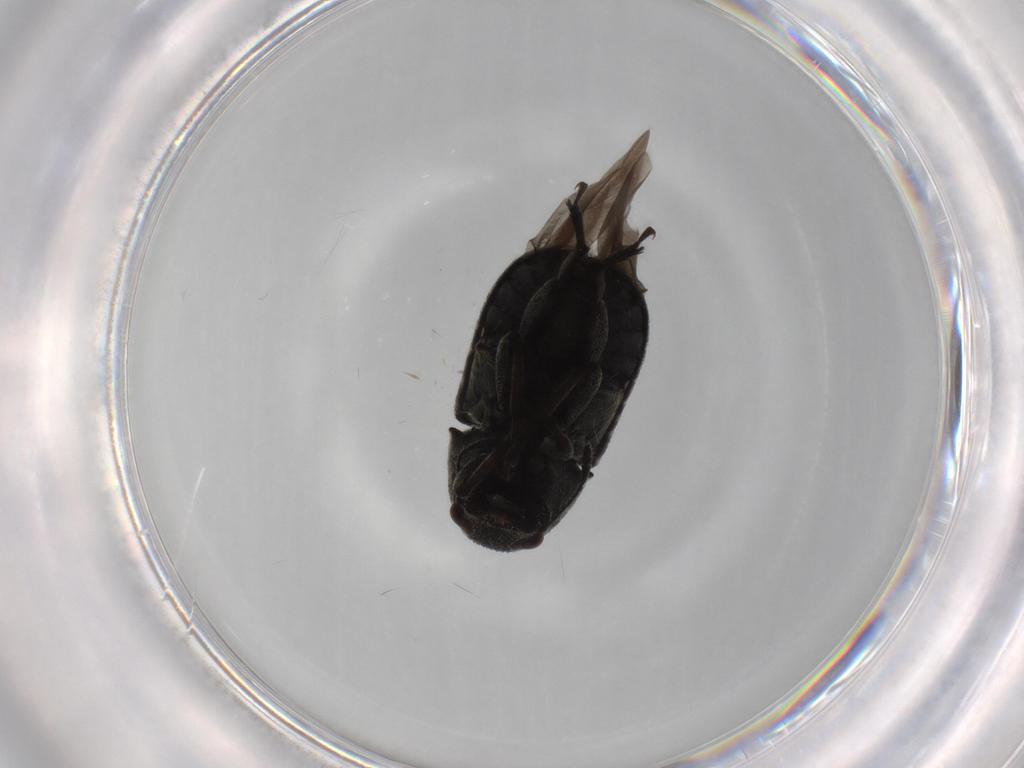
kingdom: Animalia
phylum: Arthropoda
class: Insecta
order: Coleoptera
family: Anthribidae
